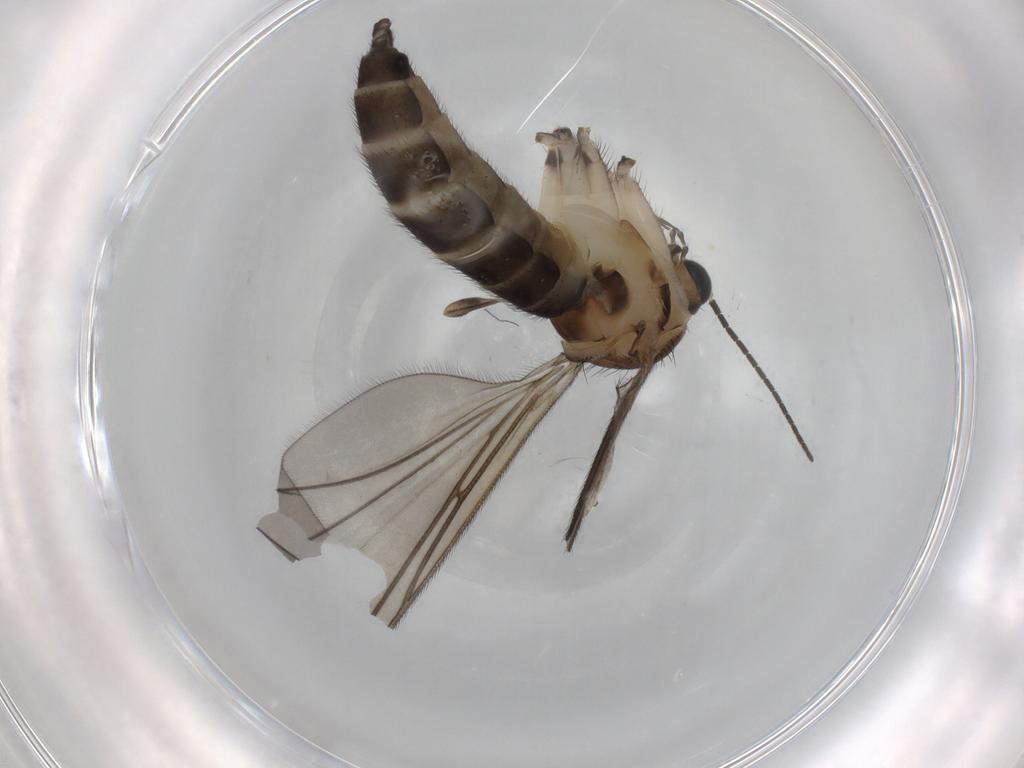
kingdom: Animalia
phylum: Arthropoda
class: Insecta
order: Diptera
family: Sciaridae
